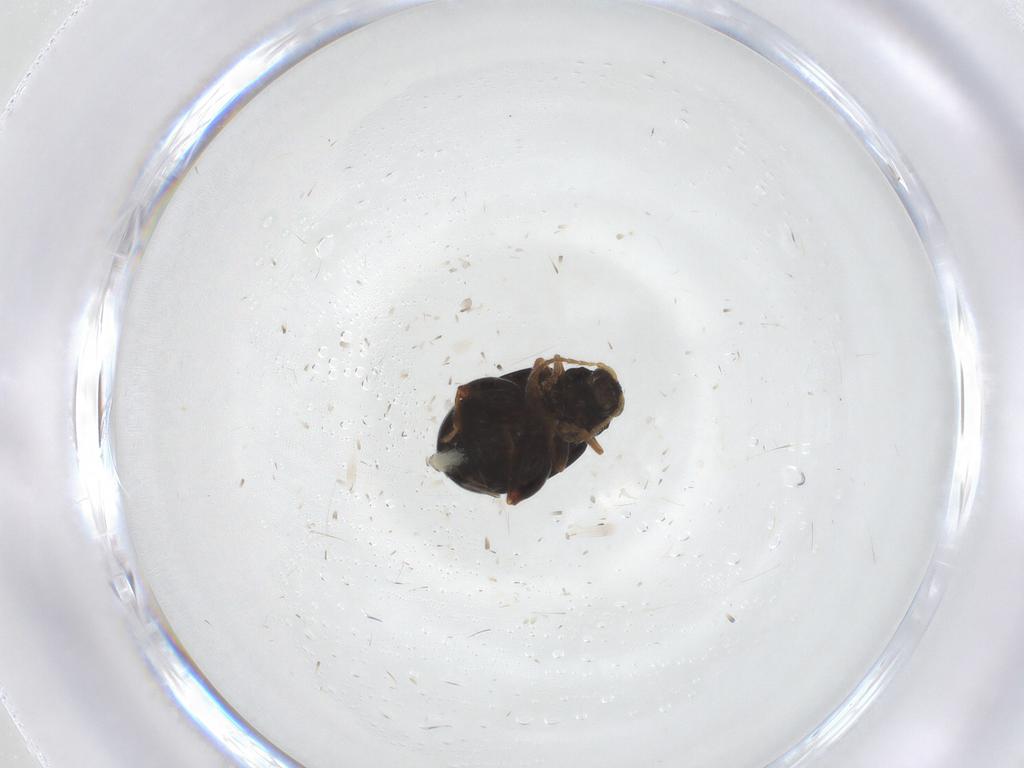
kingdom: Animalia
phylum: Arthropoda
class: Insecta
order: Coleoptera
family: Chrysomelidae
